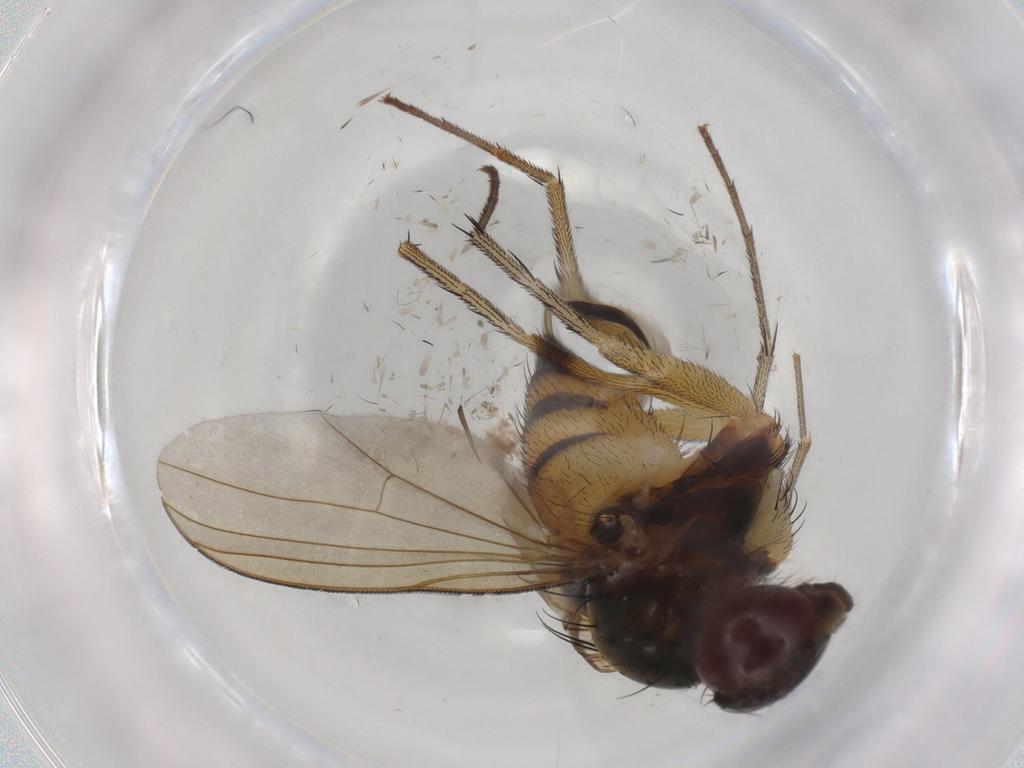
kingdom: Animalia
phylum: Arthropoda
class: Insecta
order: Diptera
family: Dolichopodidae
